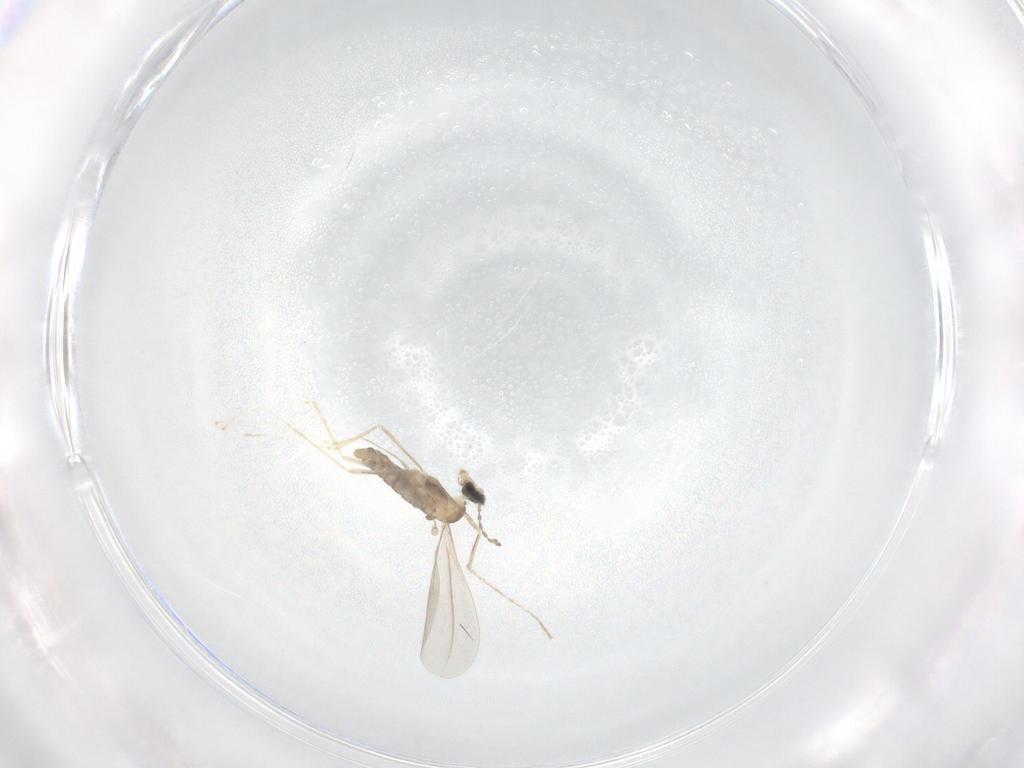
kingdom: Animalia
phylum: Arthropoda
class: Insecta
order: Diptera
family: Cecidomyiidae
